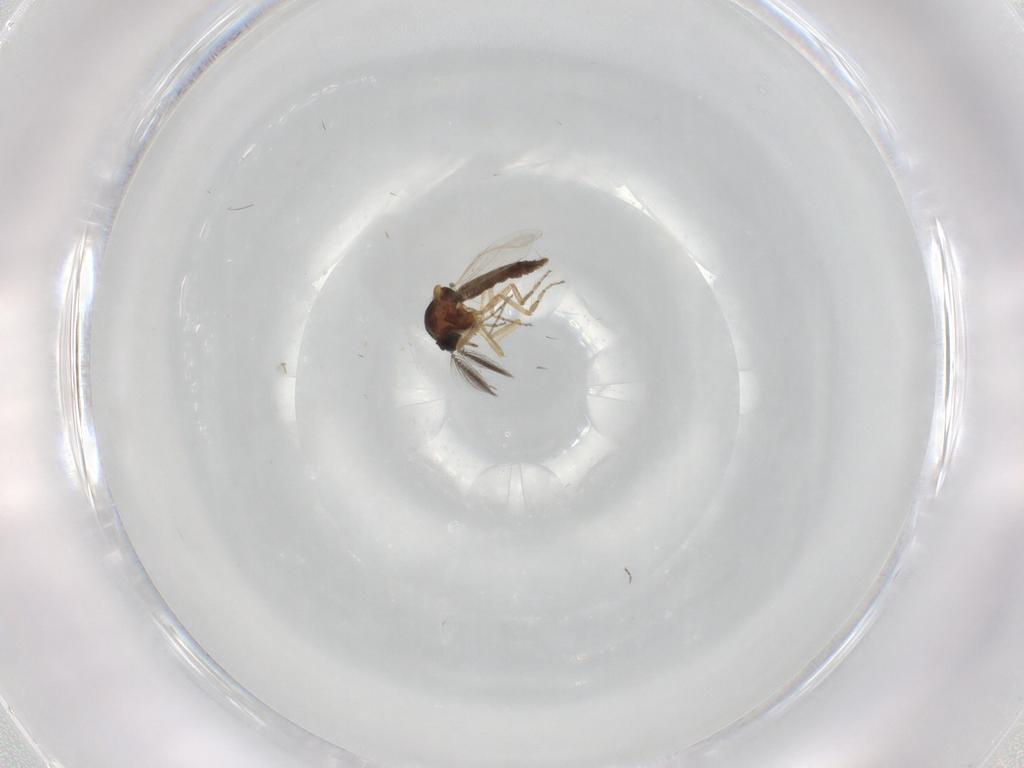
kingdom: Animalia
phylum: Arthropoda
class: Insecta
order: Diptera
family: Ceratopogonidae
